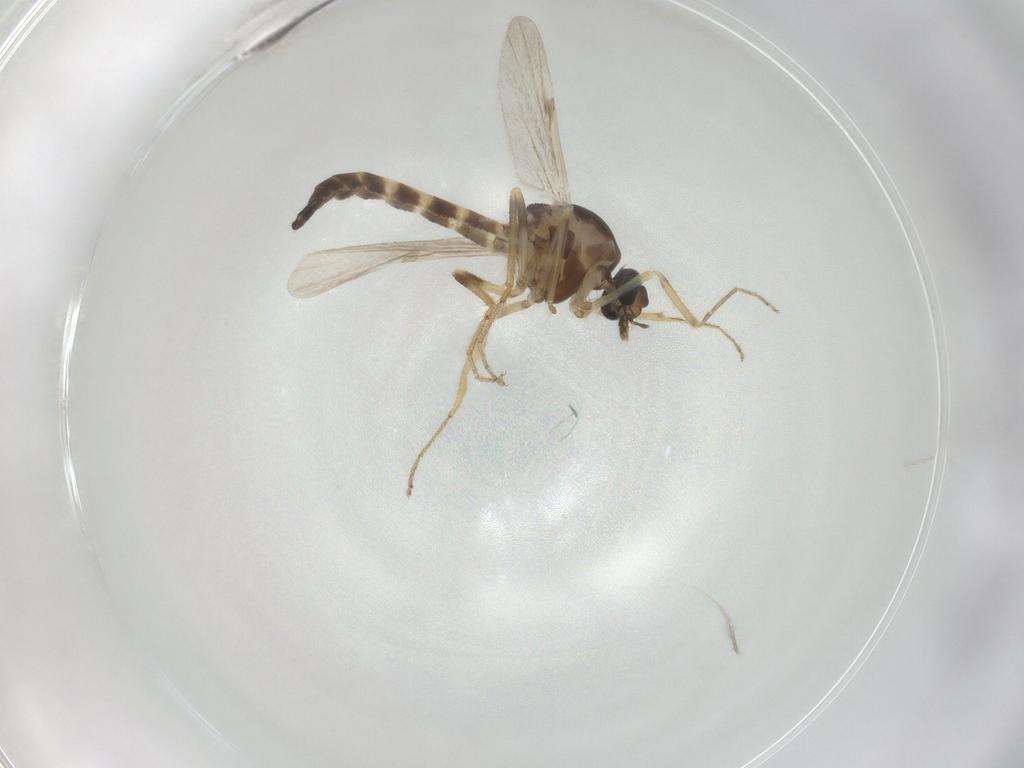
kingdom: Animalia
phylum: Arthropoda
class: Insecta
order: Diptera
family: Ceratopogonidae
